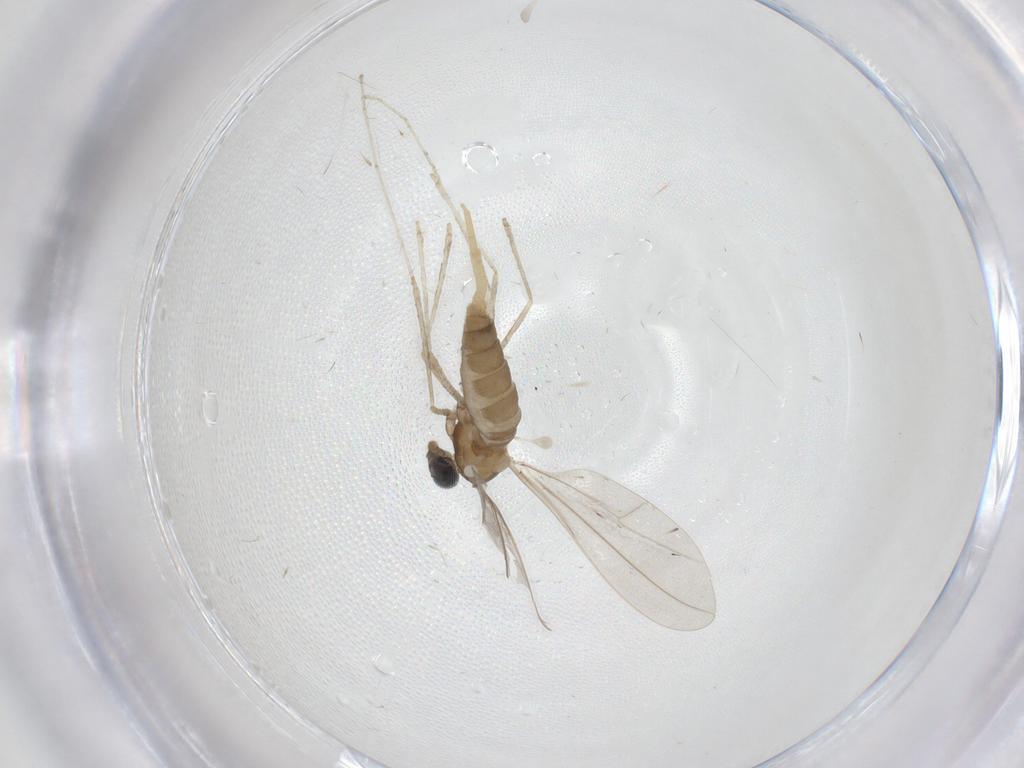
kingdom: Animalia
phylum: Arthropoda
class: Insecta
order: Diptera
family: Cecidomyiidae
